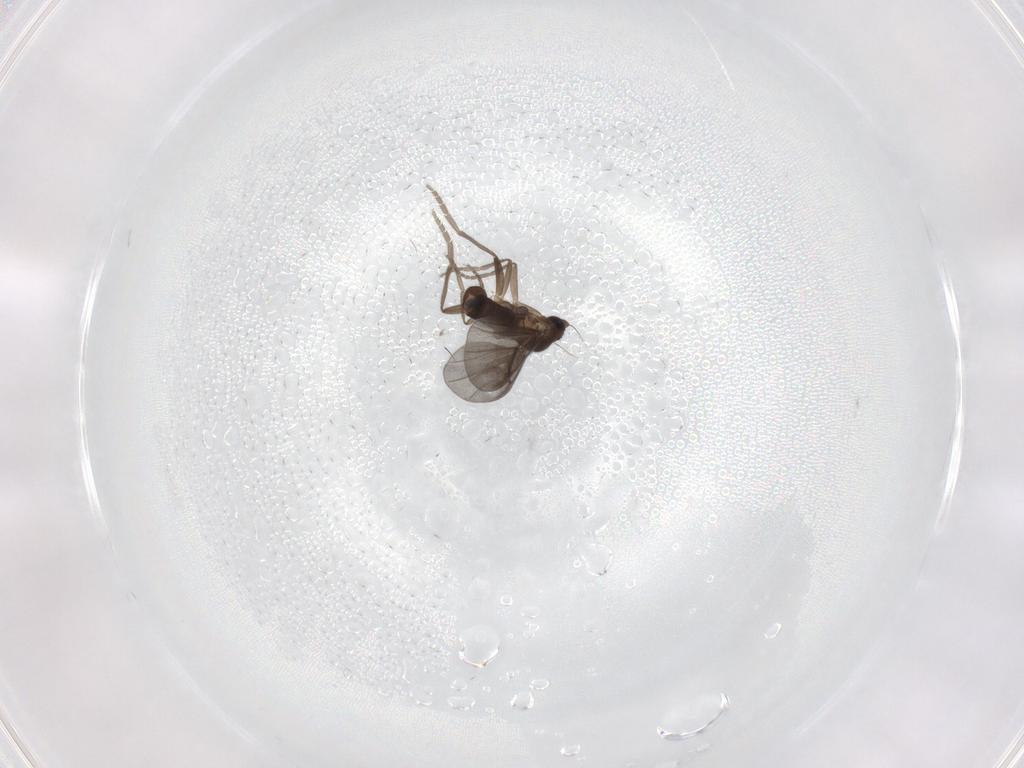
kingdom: Animalia
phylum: Arthropoda
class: Insecta
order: Diptera
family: Phoridae
